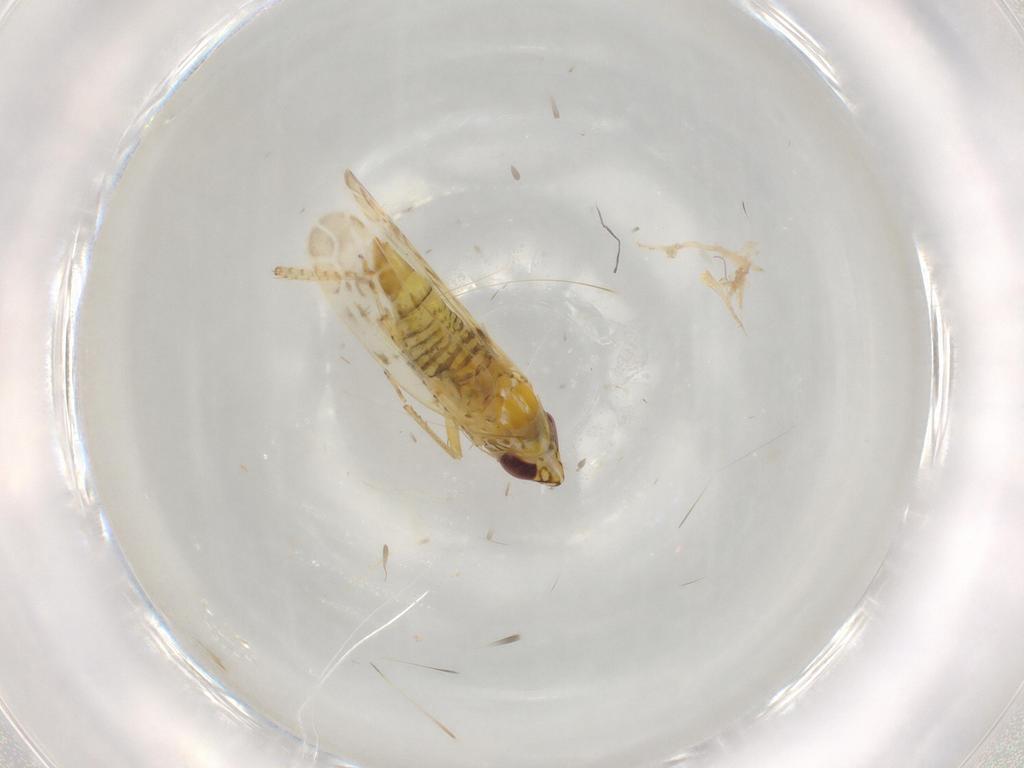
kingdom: Animalia
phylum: Arthropoda
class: Insecta
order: Hemiptera
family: Cicadellidae
